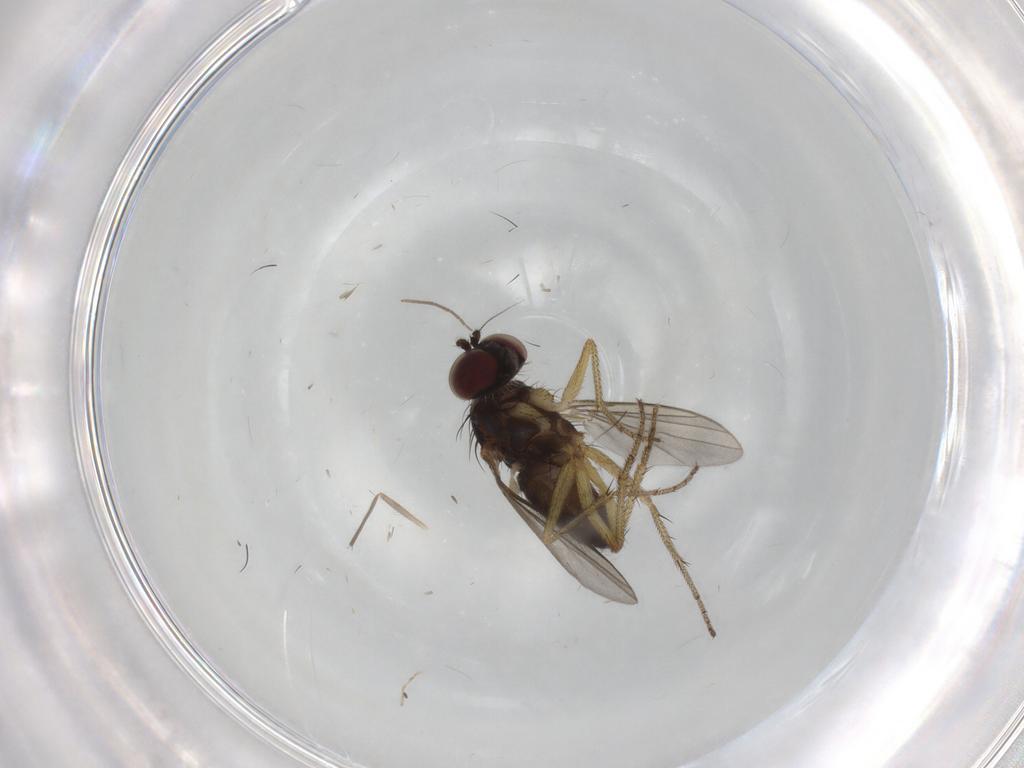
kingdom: Animalia
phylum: Arthropoda
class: Insecta
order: Diptera
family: Chironomidae
